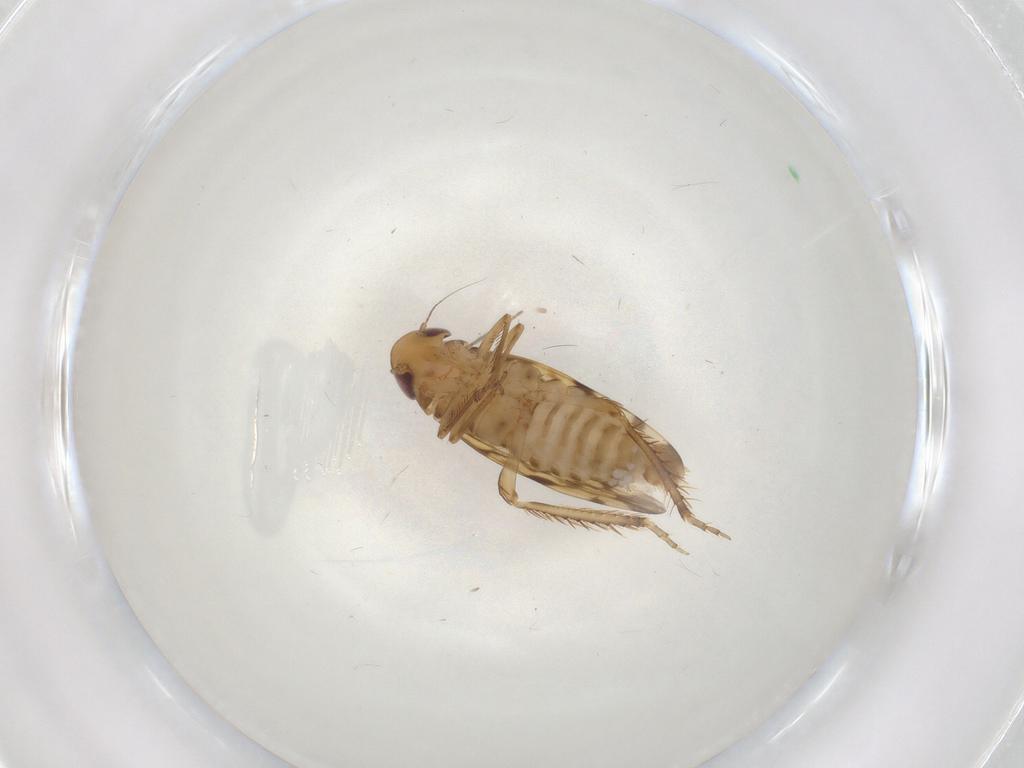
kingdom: Animalia
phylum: Arthropoda
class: Insecta
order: Hemiptera
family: Cicadellidae
